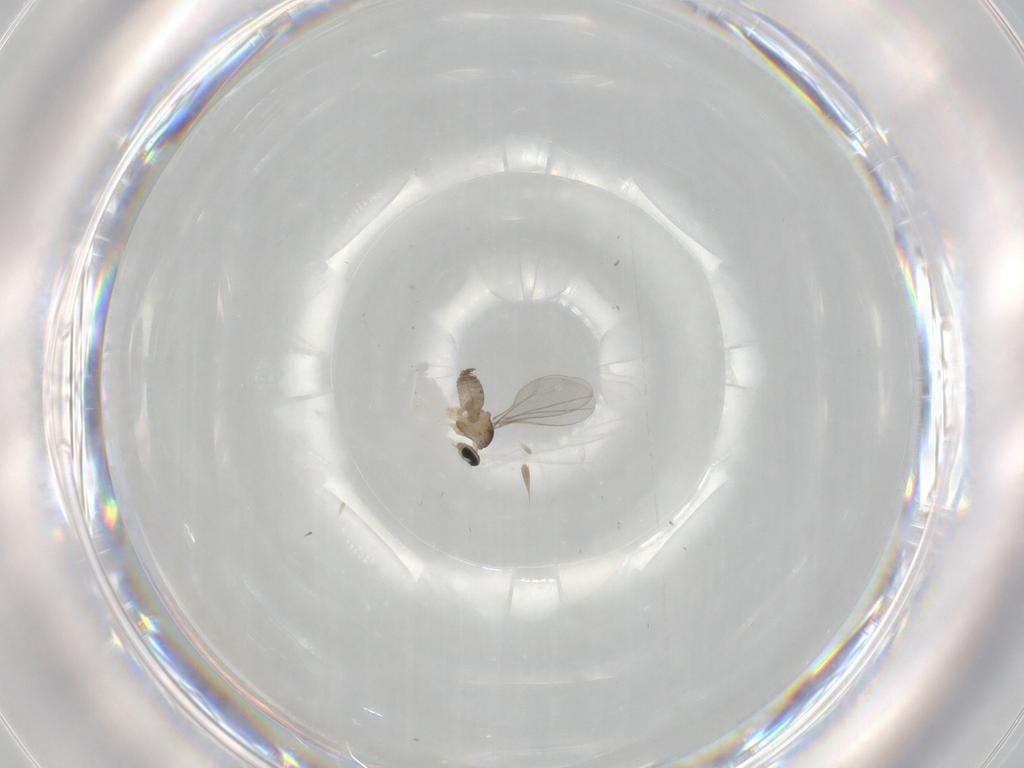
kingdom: Animalia
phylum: Arthropoda
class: Insecta
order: Diptera
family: Cecidomyiidae
